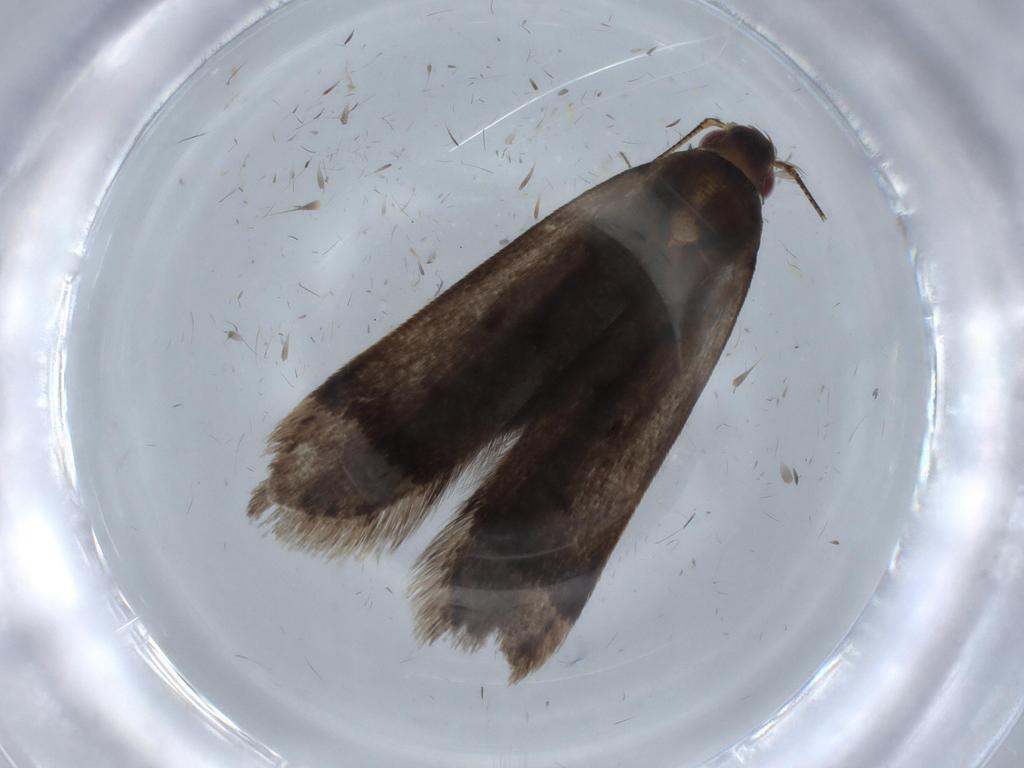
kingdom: Animalia
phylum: Arthropoda
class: Insecta
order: Lepidoptera
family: Gelechiidae
